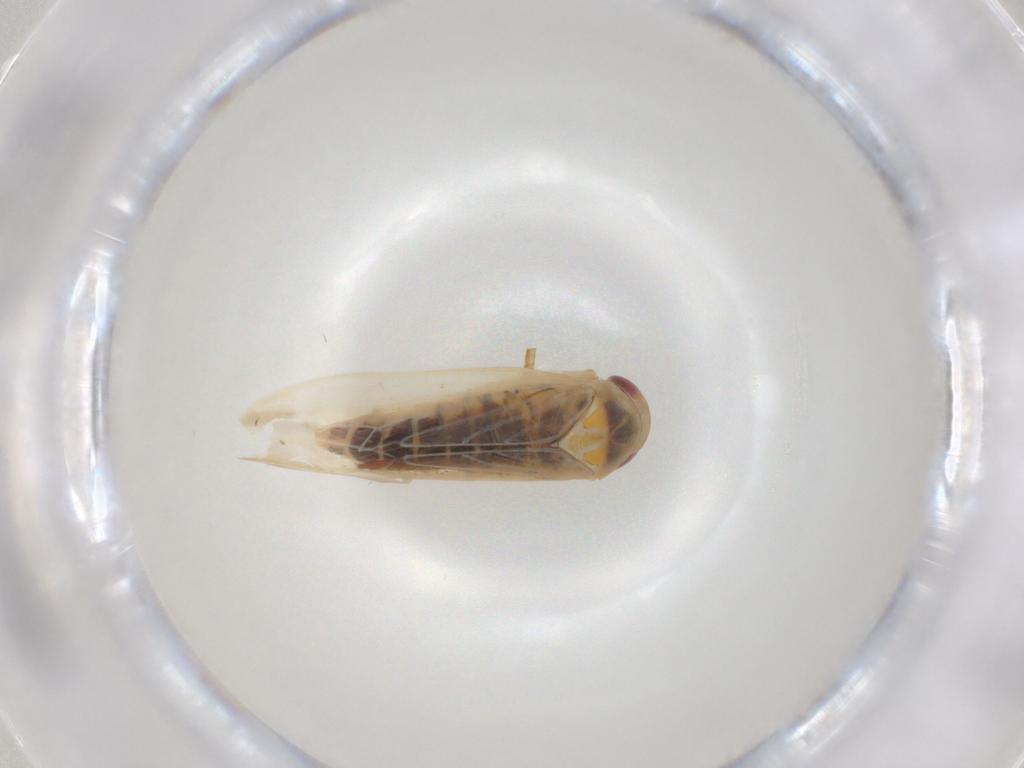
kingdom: Animalia
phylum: Arthropoda
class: Insecta
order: Hemiptera
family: Cicadellidae
